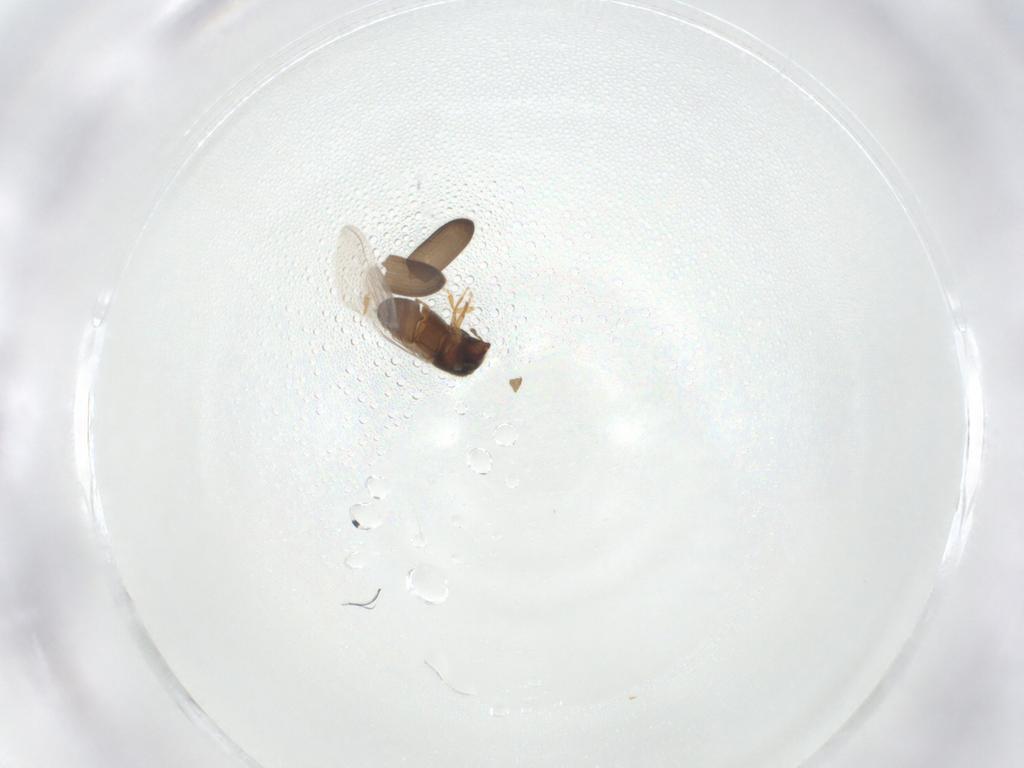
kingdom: Animalia
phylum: Arthropoda
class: Insecta
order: Coleoptera
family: Curculionidae
